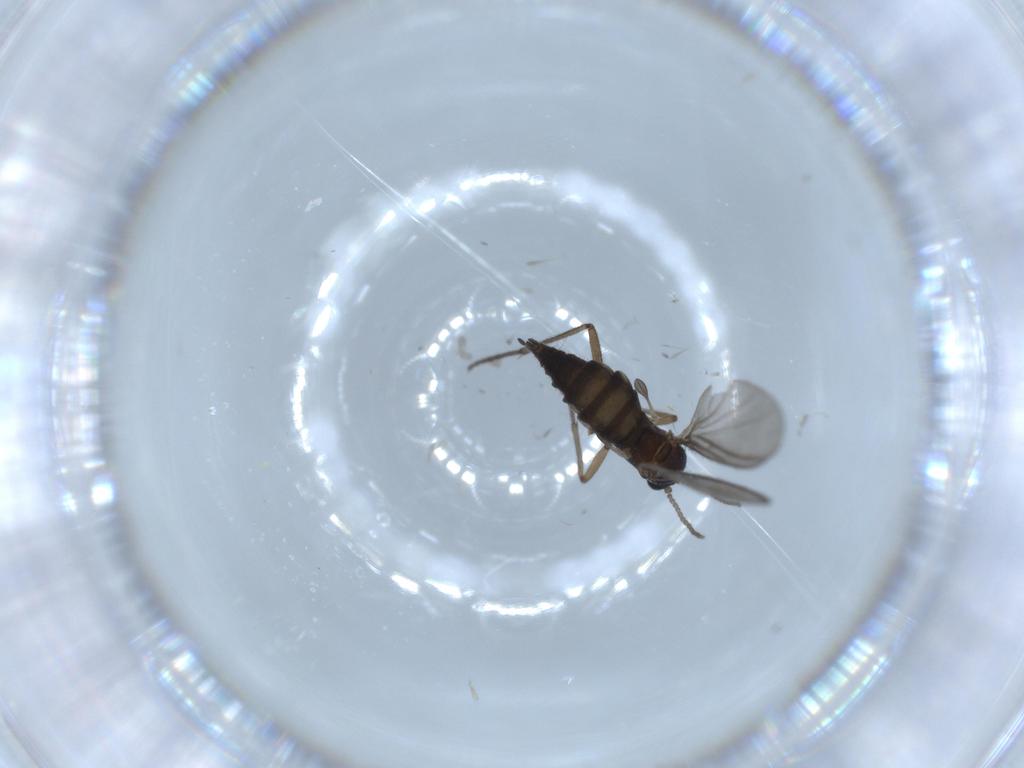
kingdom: Animalia
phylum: Arthropoda
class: Insecta
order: Diptera
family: Sciaridae
